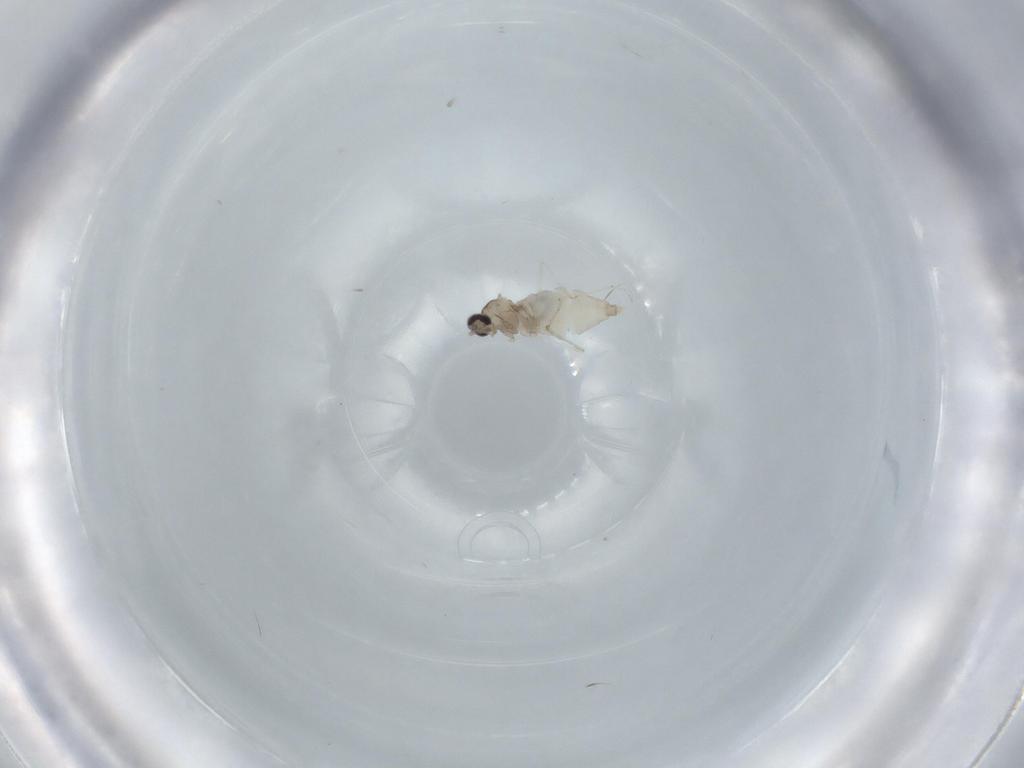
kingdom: Animalia
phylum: Arthropoda
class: Insecta
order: Diptera
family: Cecidomyiidae
